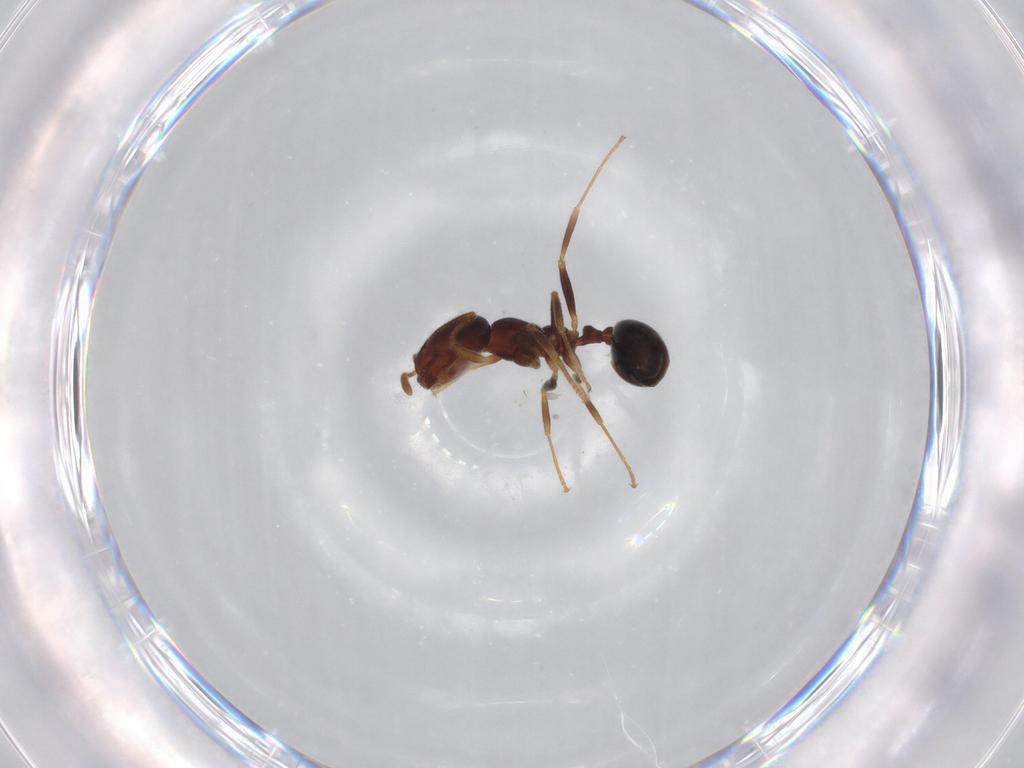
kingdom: Animalia
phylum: Arthropoda
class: Insecta
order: Hymenoptera
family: Formicidae
